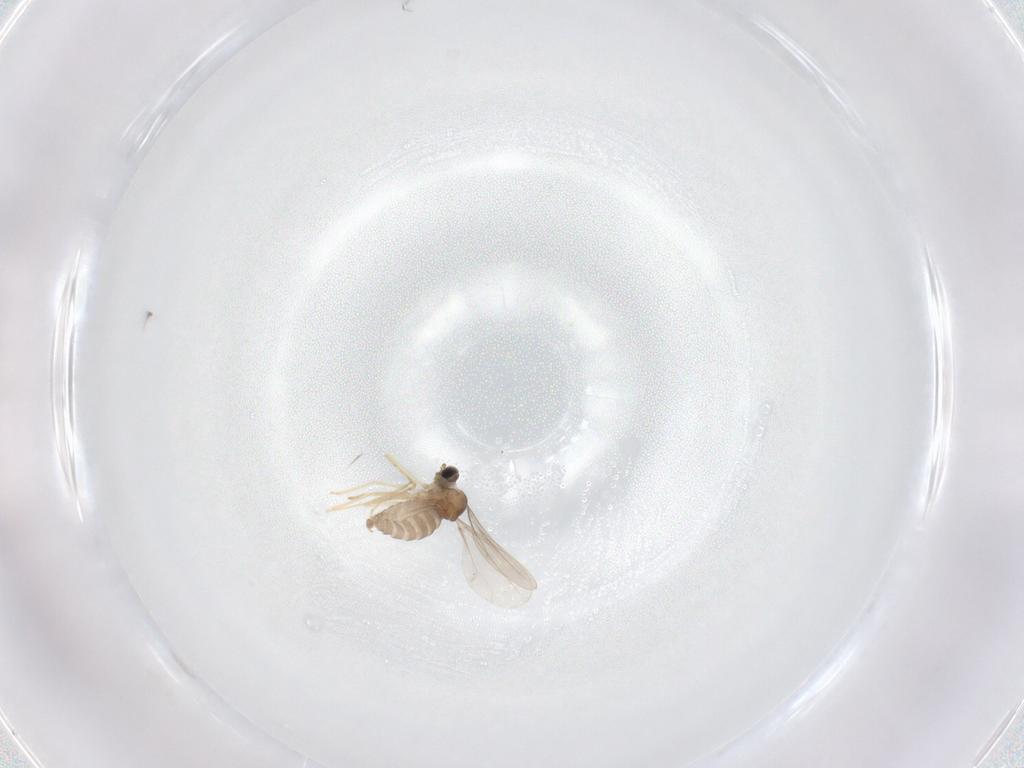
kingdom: Animalia
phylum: Arthropoda
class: Insecta
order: Diptera
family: Cecidomyiidae
